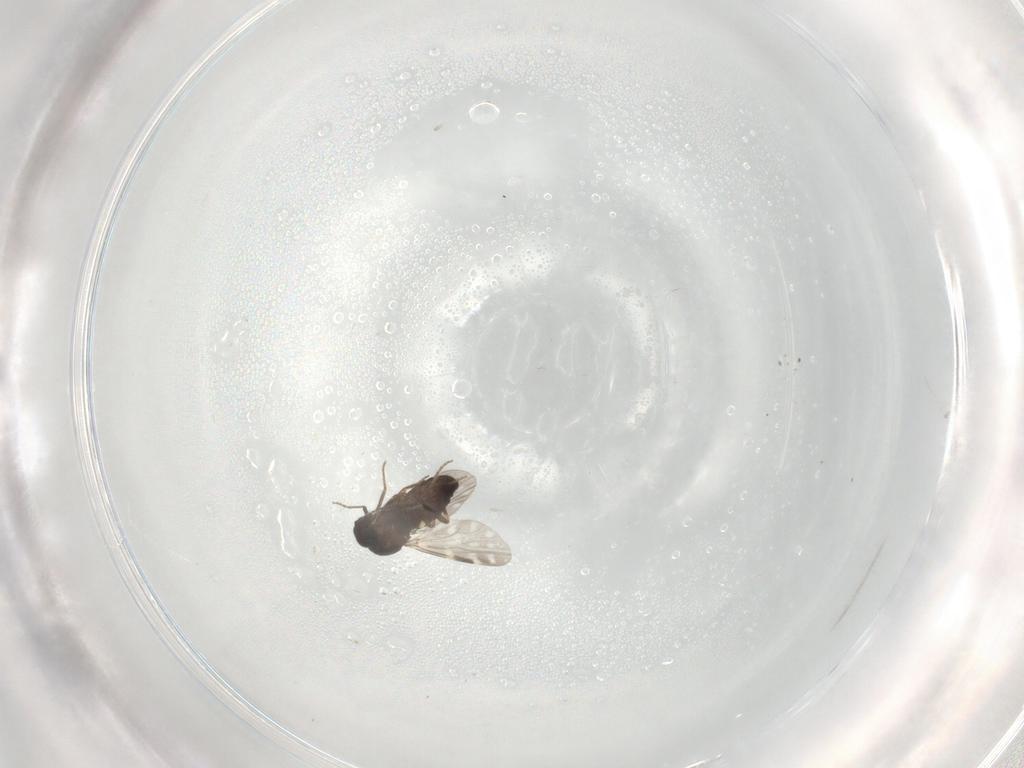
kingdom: Animalia
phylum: Arthropoda
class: Insecta
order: Diptera
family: Ceratopogonidae
